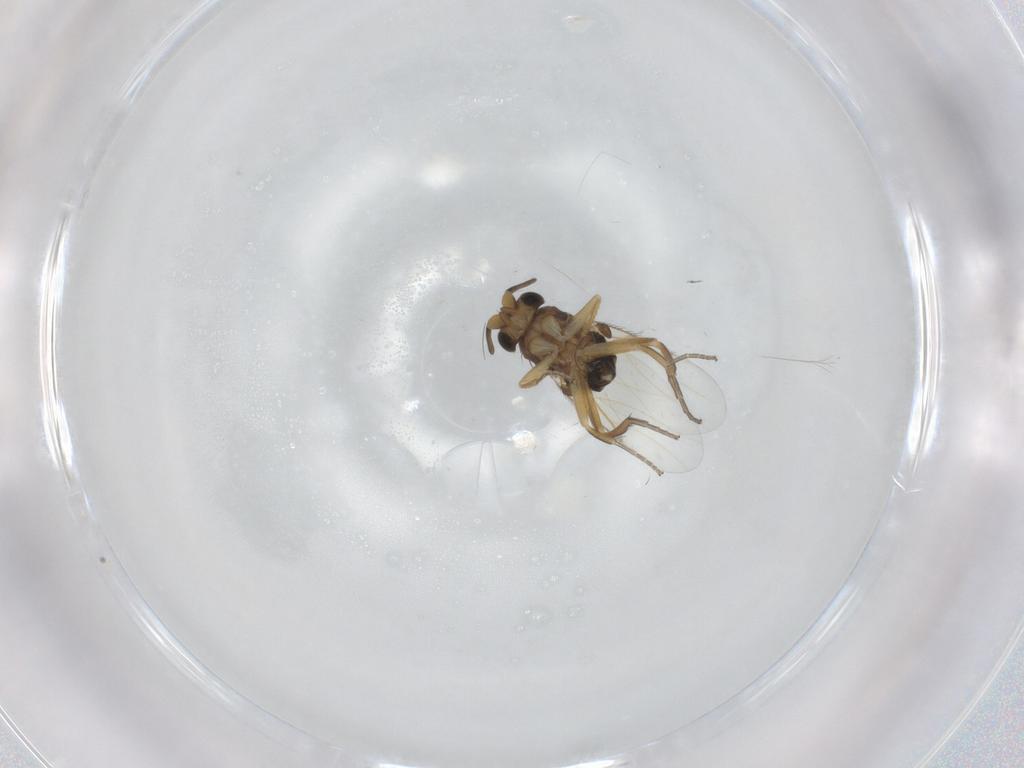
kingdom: Animalia
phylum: Arthropoda
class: Insecta
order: Diptera
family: Phoridae
